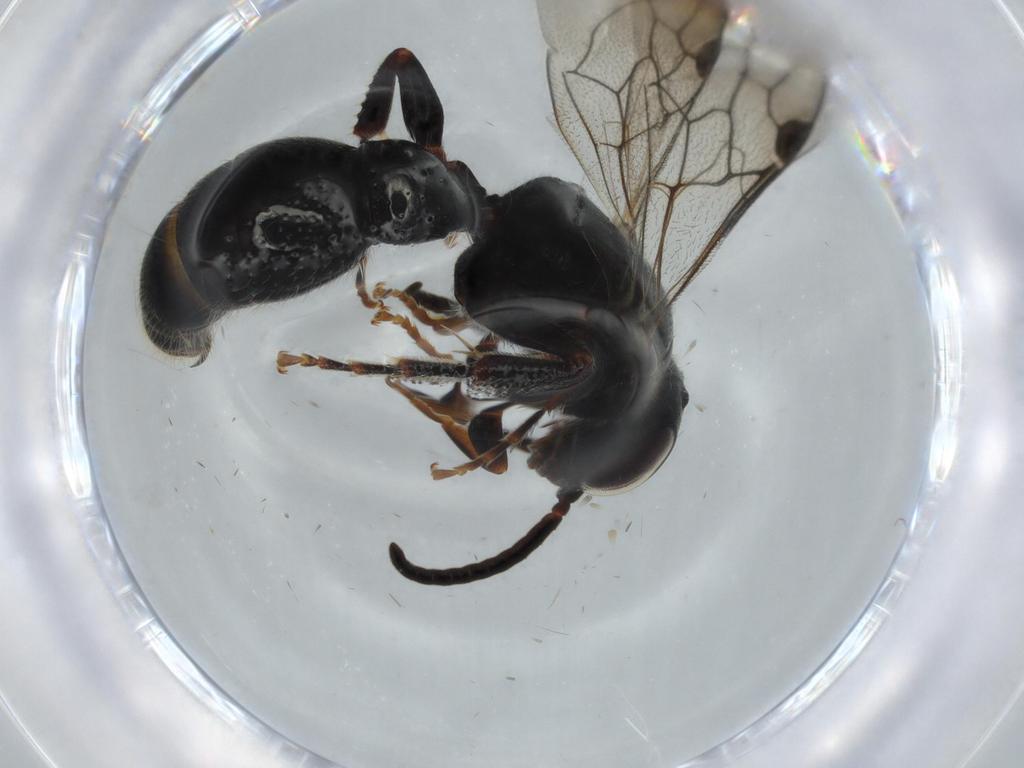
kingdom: Animalia
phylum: Arthropoda
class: Insecta
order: Hymenoptera
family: Tiphiidae
